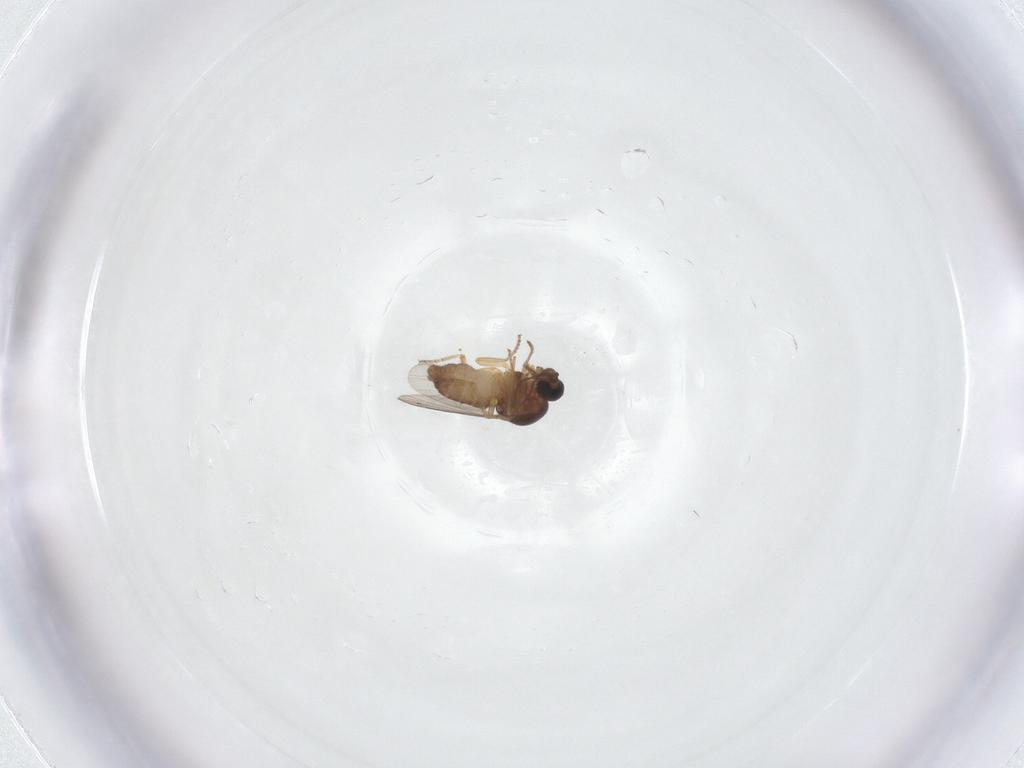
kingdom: Animalia
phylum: Arthropoda
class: Insecta
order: Diptera
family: Ceratopogonidae
